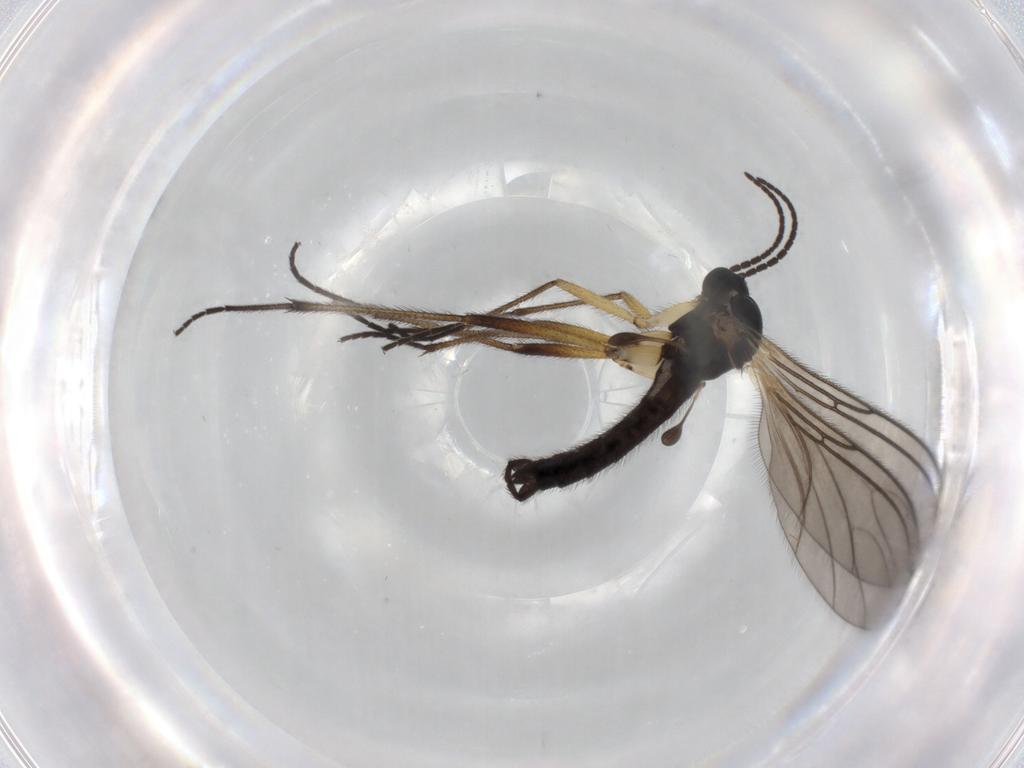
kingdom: Animalia
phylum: Arthropoda
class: Insecta
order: Diptera
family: Sciaridae
